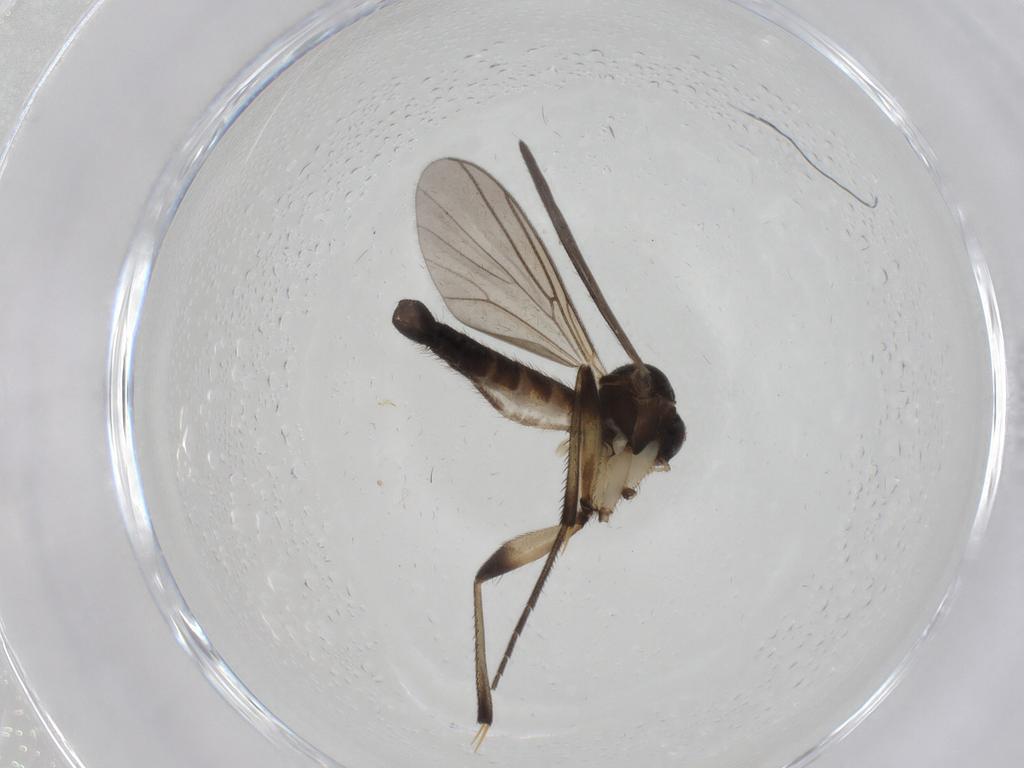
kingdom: Animalia
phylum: Arthropoda
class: Insecta
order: Diptera
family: Mycetophilidae
